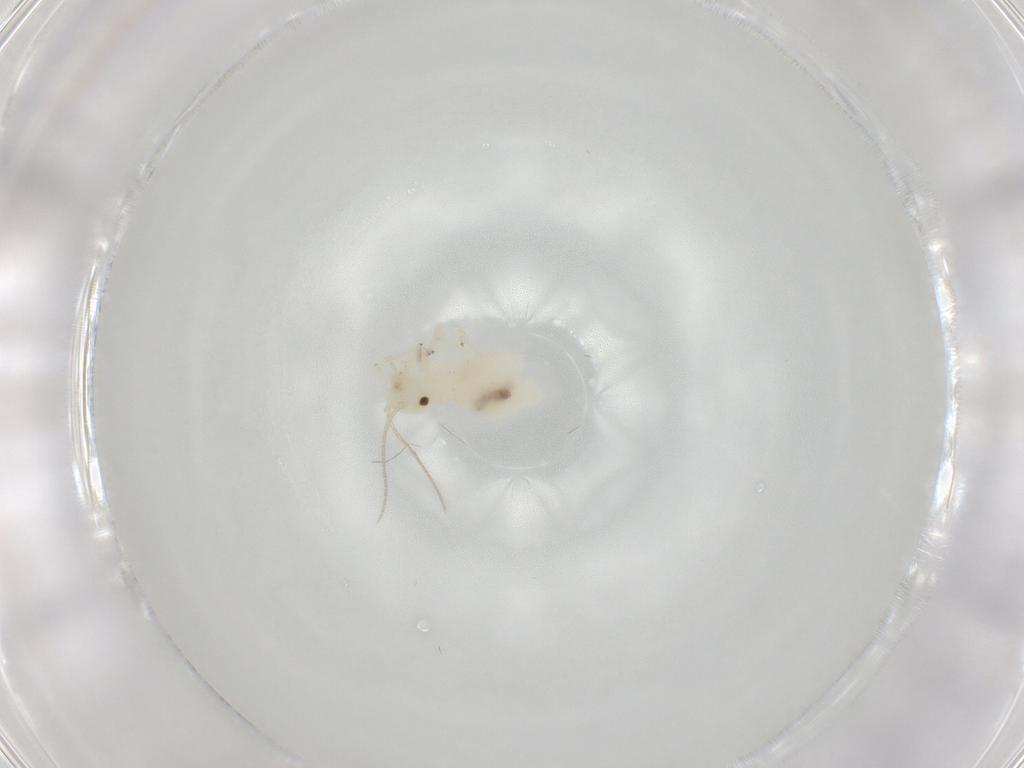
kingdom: Animalia
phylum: Arthropoda
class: Insecta
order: Psocodea
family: Caeciliusidae
